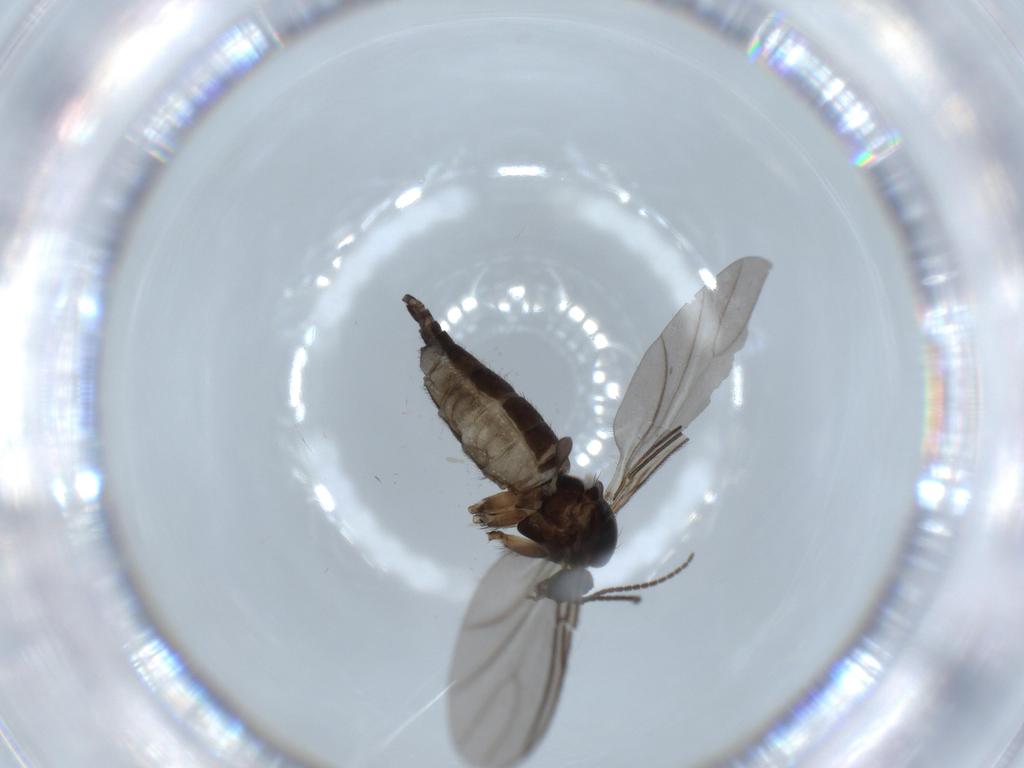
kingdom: Animalia
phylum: Arthropoda
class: Insecta
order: Diptera
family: Sciaridae
